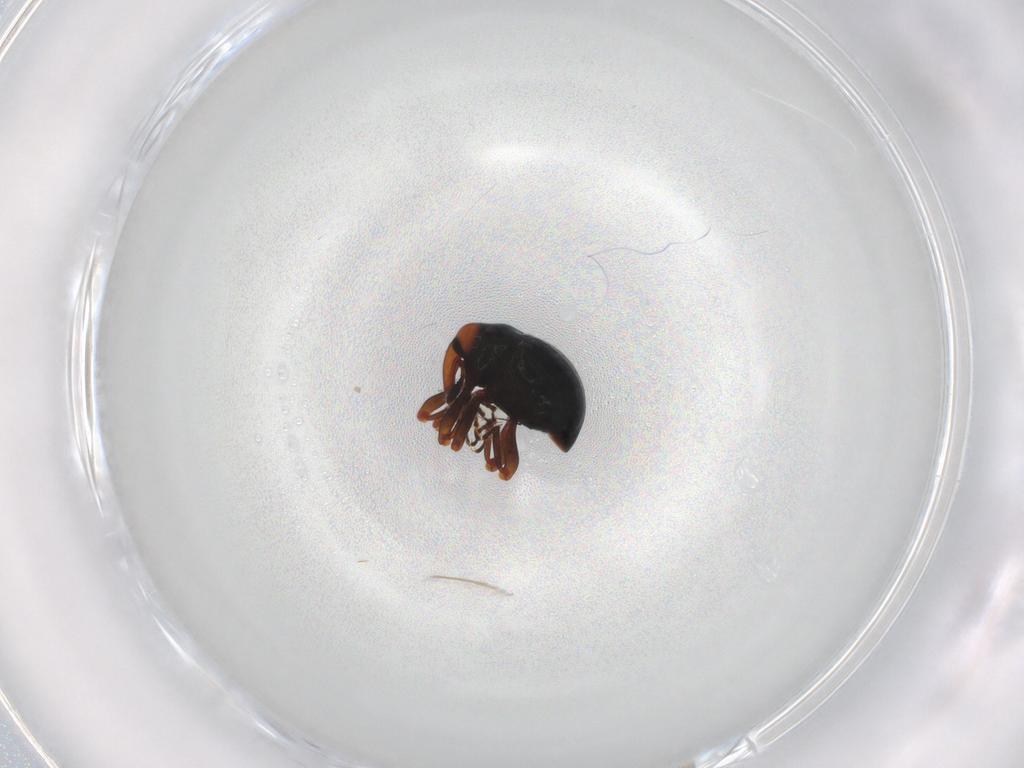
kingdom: Animalia
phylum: Arthropoda
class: Insecta
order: Coleoptera
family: Curculionidae
